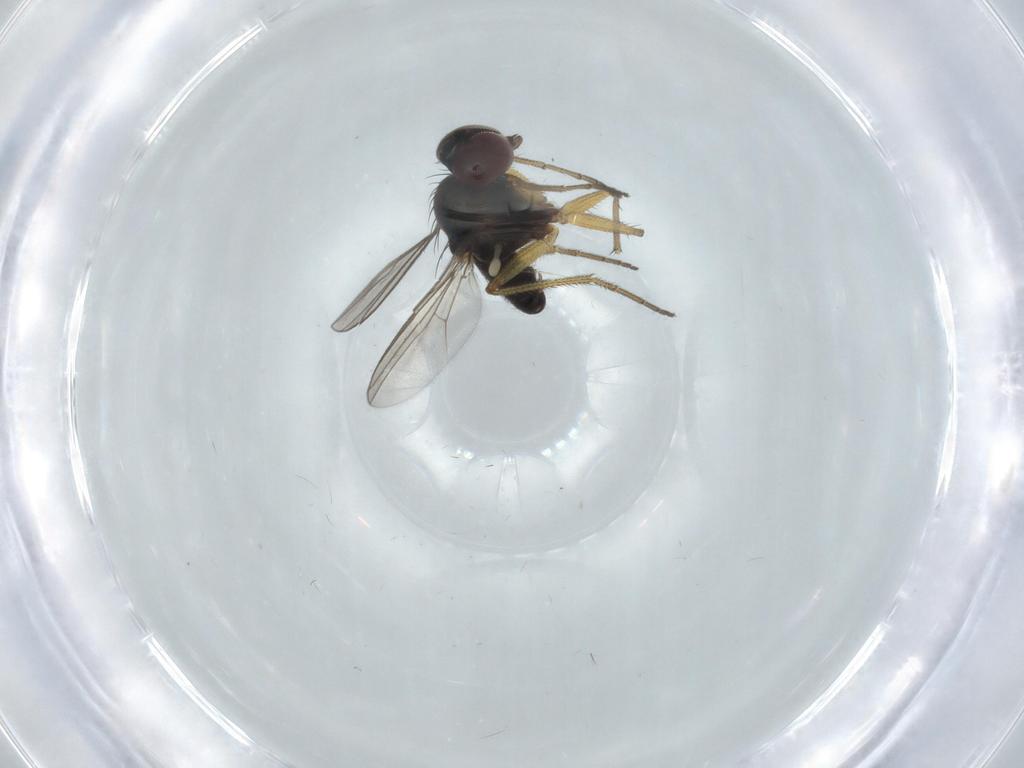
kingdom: Animalia
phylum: Arthropoda
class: Insecta
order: Diptera
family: Dolichopodidae
